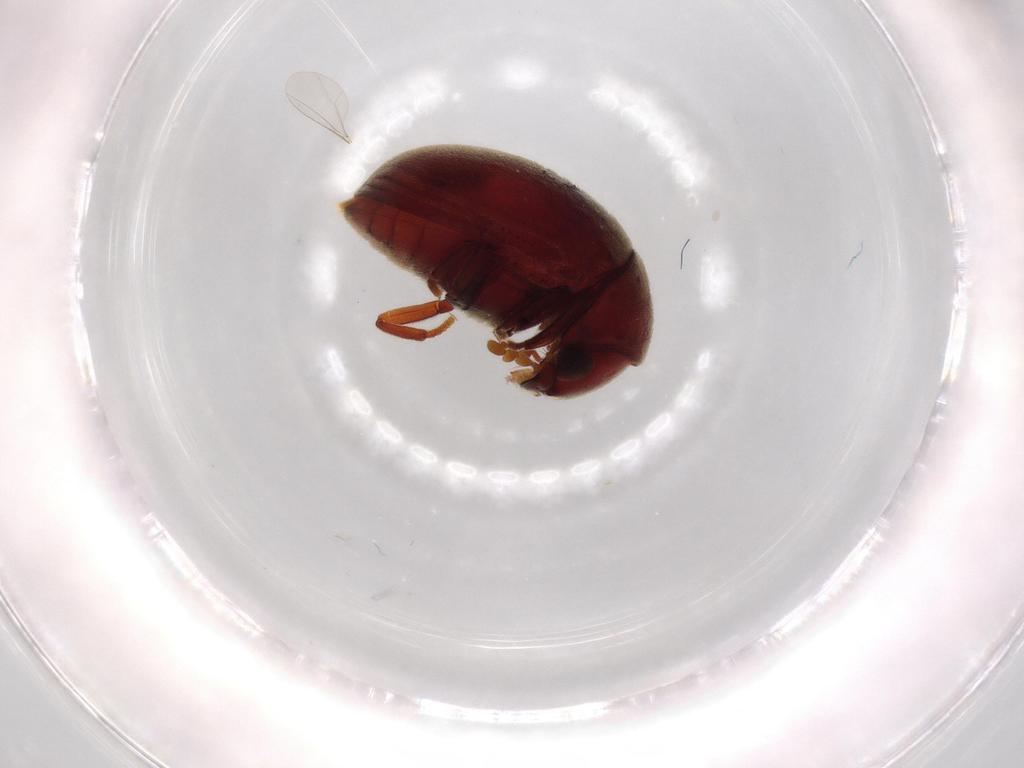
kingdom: Animalia
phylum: Arthropoda
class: Insecta
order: Coleoptera
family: Ptinidae
